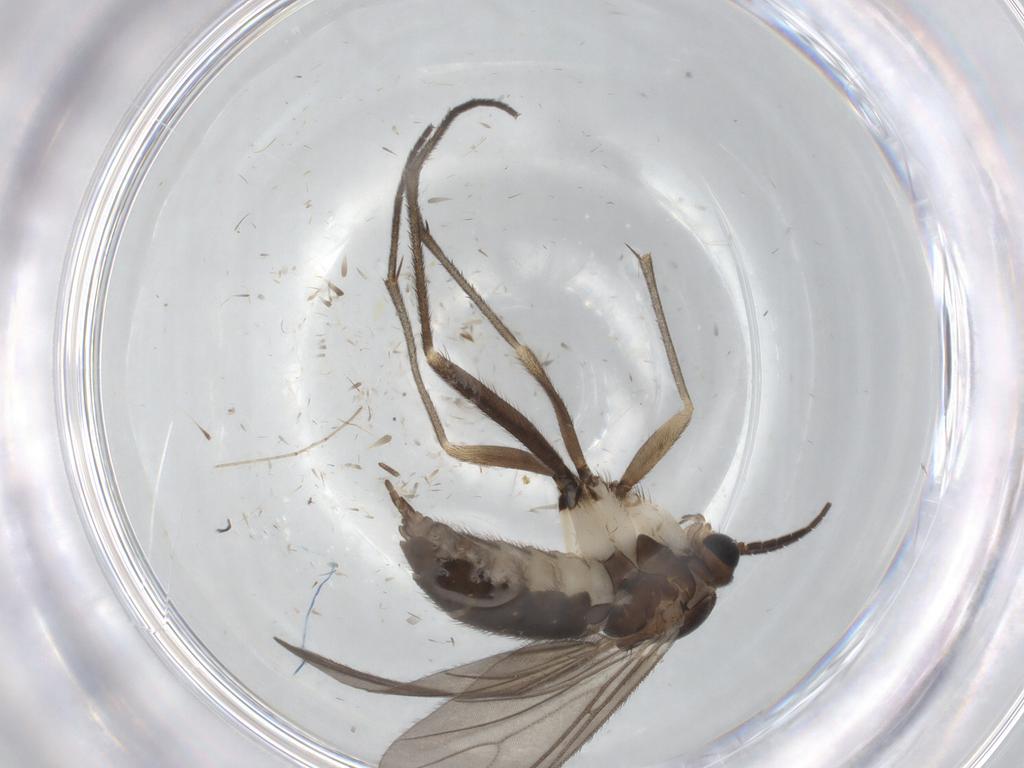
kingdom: Animalia
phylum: Arthropoda
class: Insecta
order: Diptera
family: Sciaridae
